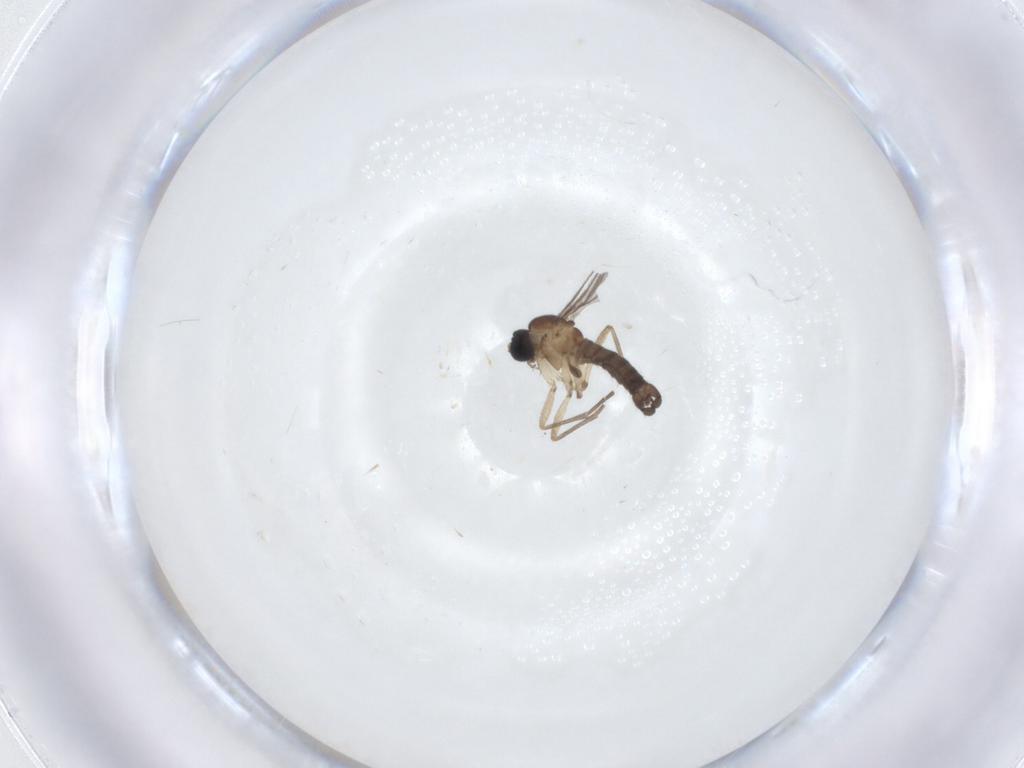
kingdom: Animalia
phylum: Arthropoda
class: Insecta
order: Diptera
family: Sciaridae
